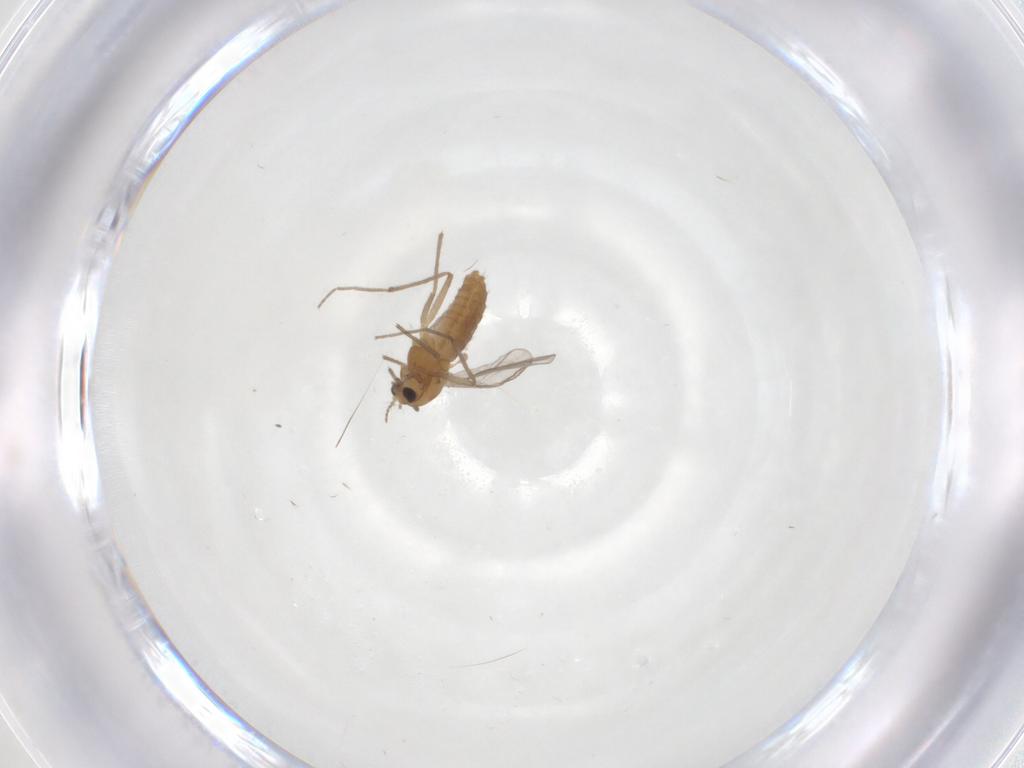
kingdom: Animalia
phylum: Arthropoda
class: Insecta
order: Diptera
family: Chironomidae
